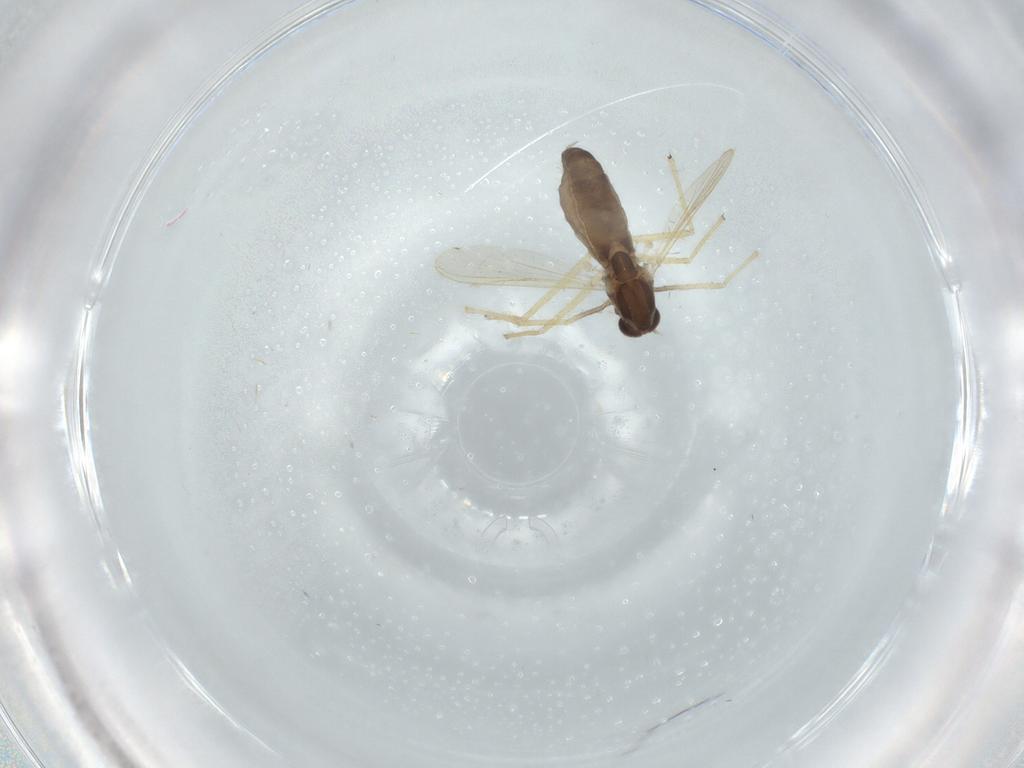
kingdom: Animalia
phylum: Arthropoda
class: Insecta
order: Diptera
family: Chironomidae
